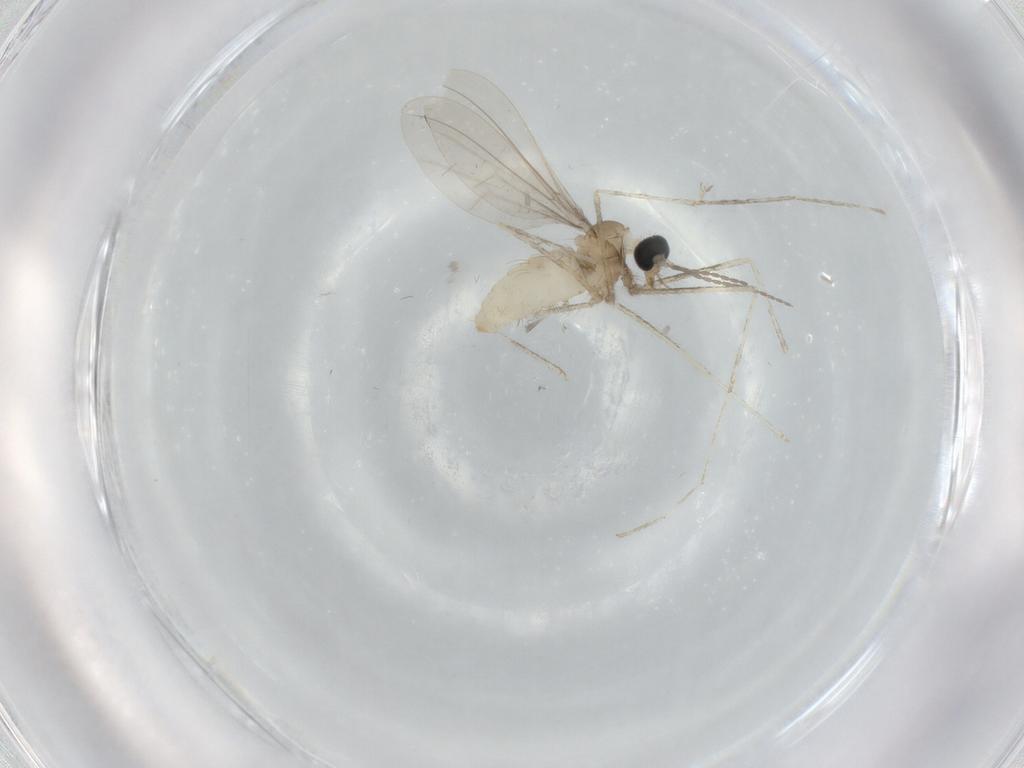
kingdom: Animalia
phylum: Arthropoda
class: Insecta
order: Diptera
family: Cecidomyiidae
